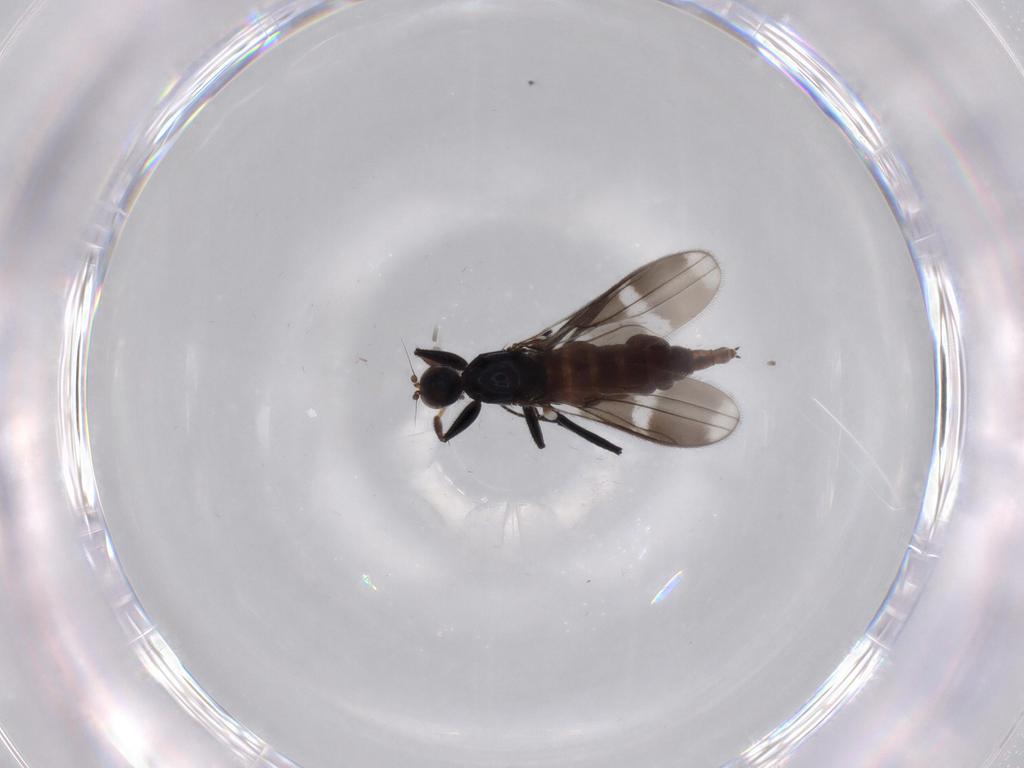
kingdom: Animalia
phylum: Arthropoda
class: Insecta
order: Diptera
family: Hybotidae
